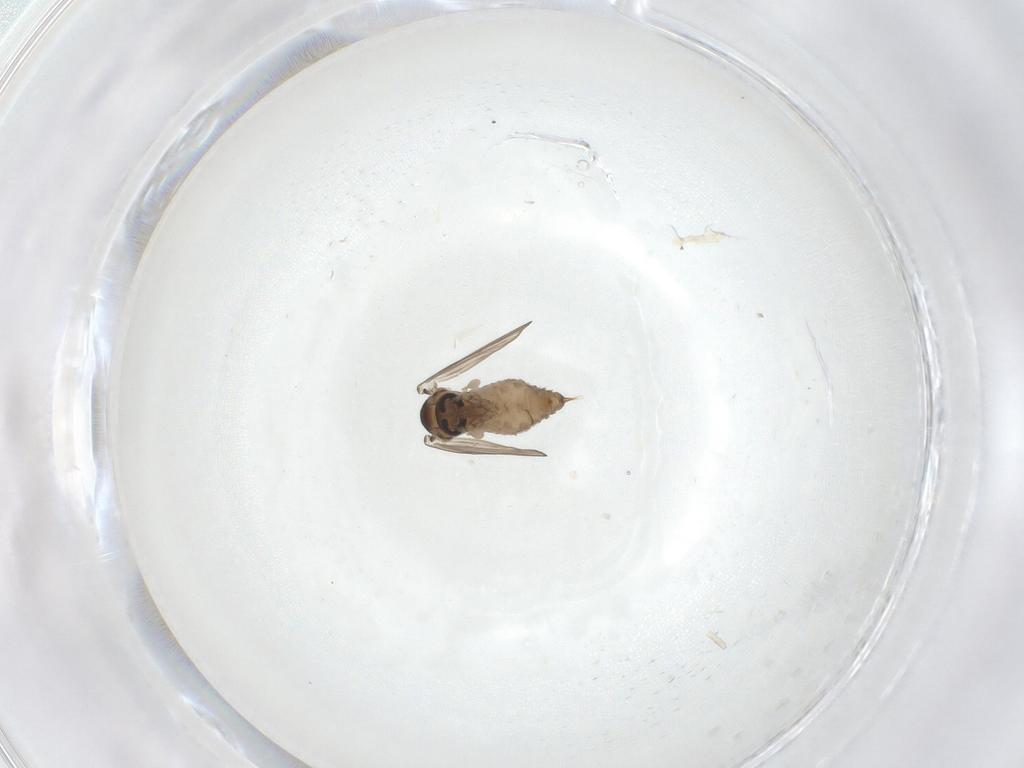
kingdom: Animalia
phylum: Arthropoda
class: Insecta
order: Diptera
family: Psychodidae
